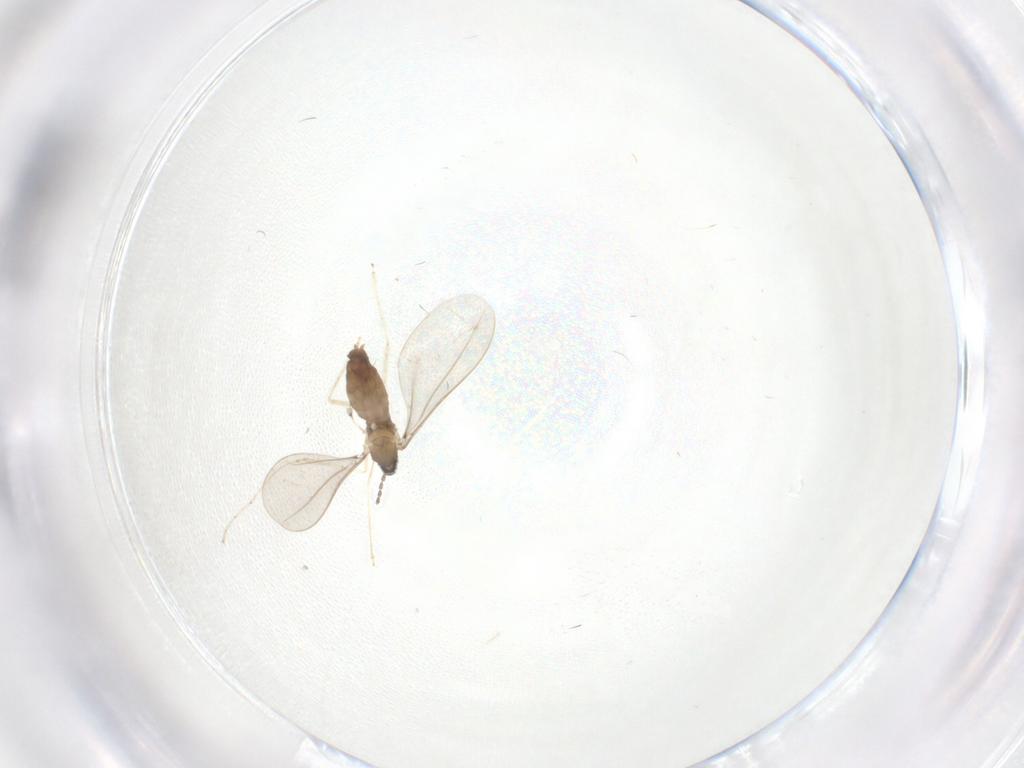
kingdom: Animalia
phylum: Arthropoda
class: Insecta
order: Diptera
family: Cecidomyiidae
